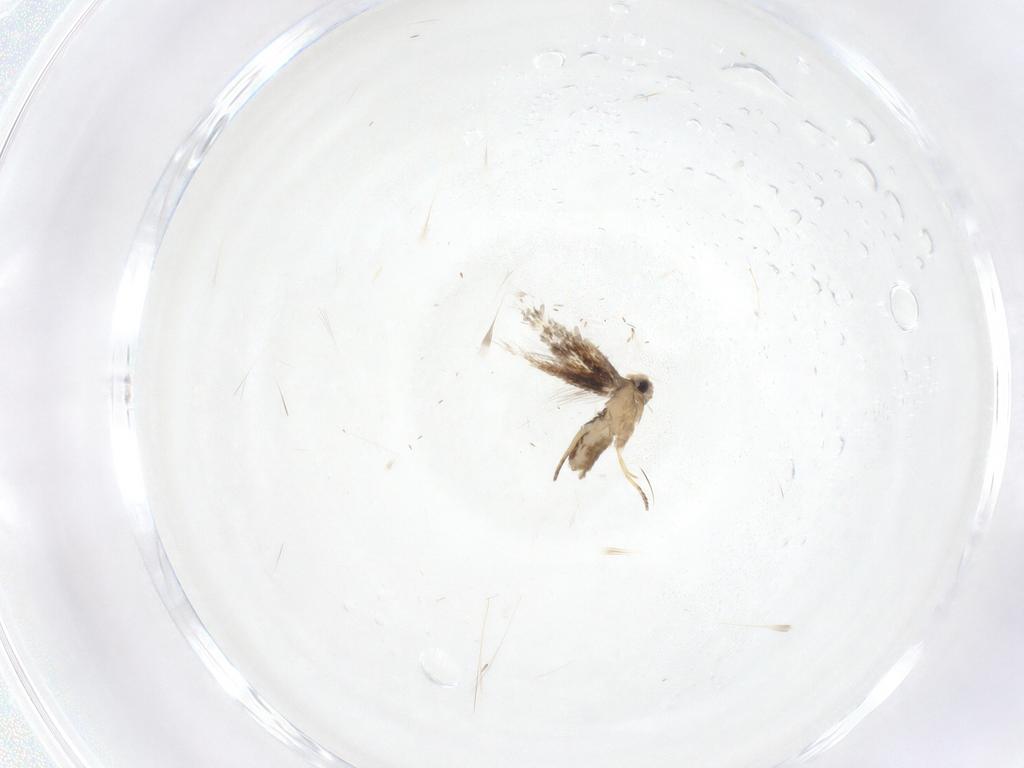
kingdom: Animalia
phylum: Arthropoda
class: Insecta
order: Lepidoptera
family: Nepticulidae
